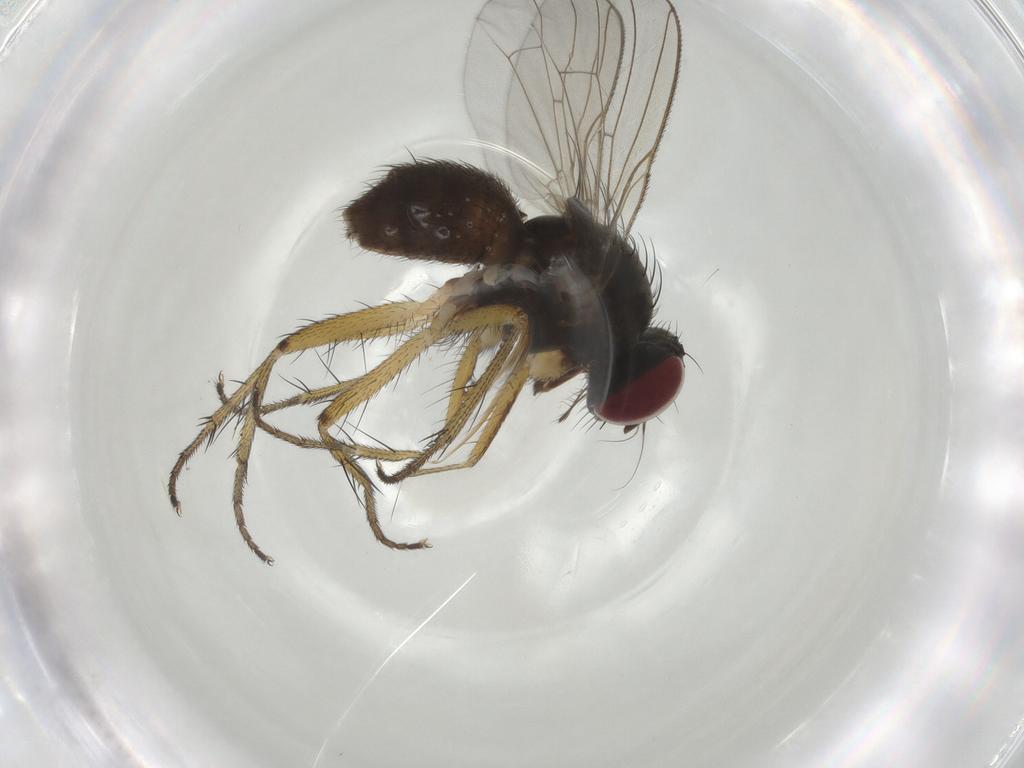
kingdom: Animalia
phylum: Arthropoda
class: Insecta
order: Diptera
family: Muscidae
